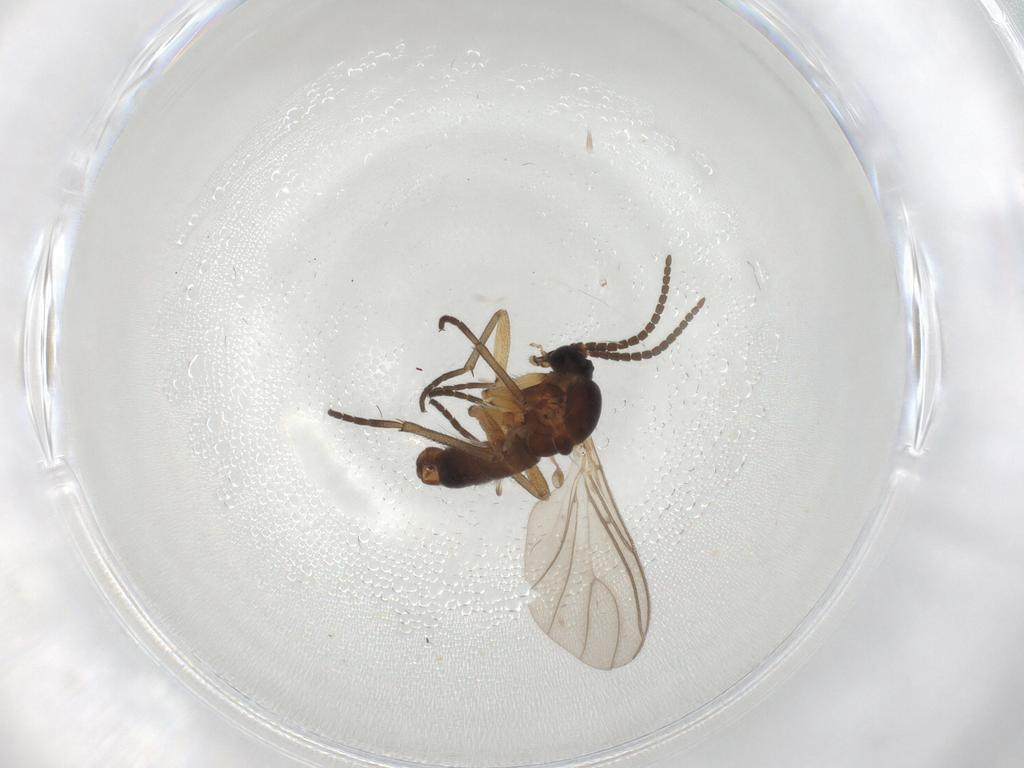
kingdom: Animalia
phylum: Arthropoda
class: Insecta
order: Diptera
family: Sciaridae
